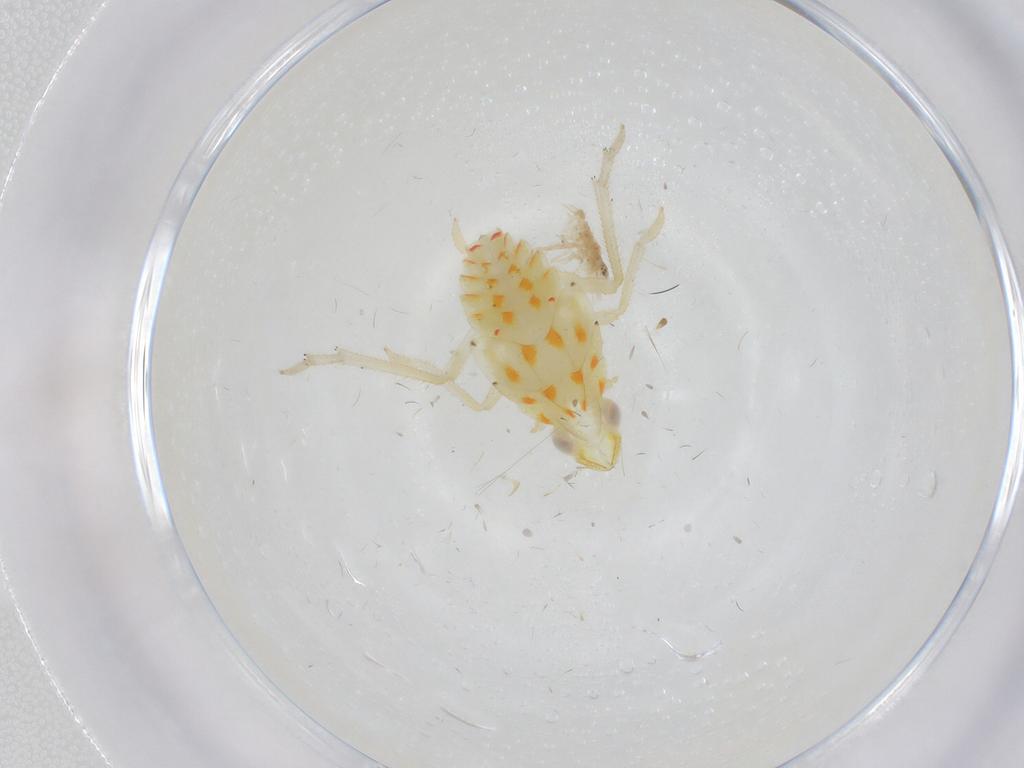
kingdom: Animalia
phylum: Arthropoda
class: Insecta
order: Hemiptera
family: Tropiduchidae
